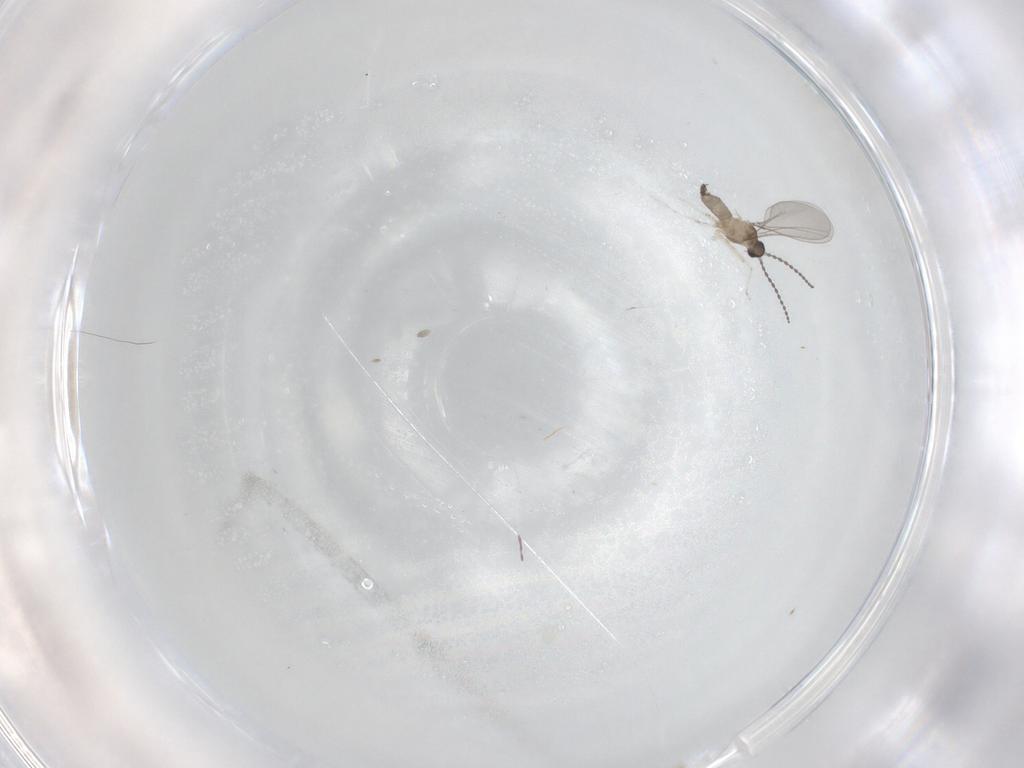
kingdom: Animalia
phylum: Arthropoda
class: Insecta
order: Diptera
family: Cecidomyiidae
